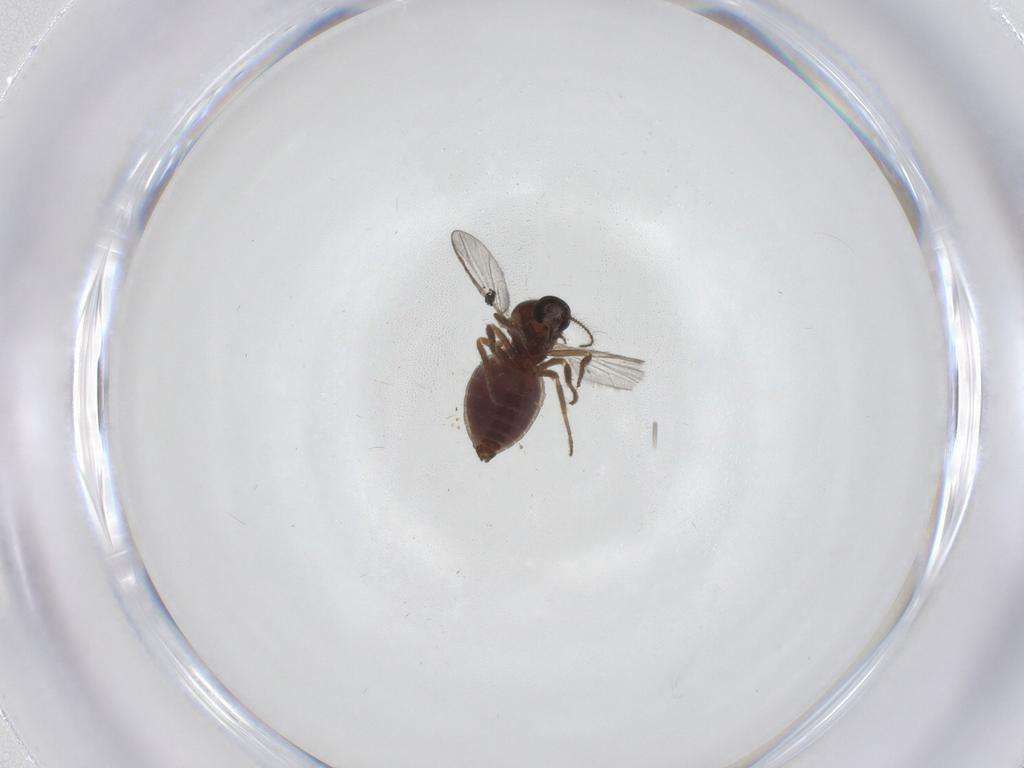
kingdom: Animalia
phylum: Arthropoda
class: Insecta
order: Diptera
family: Ceratopogonidae
